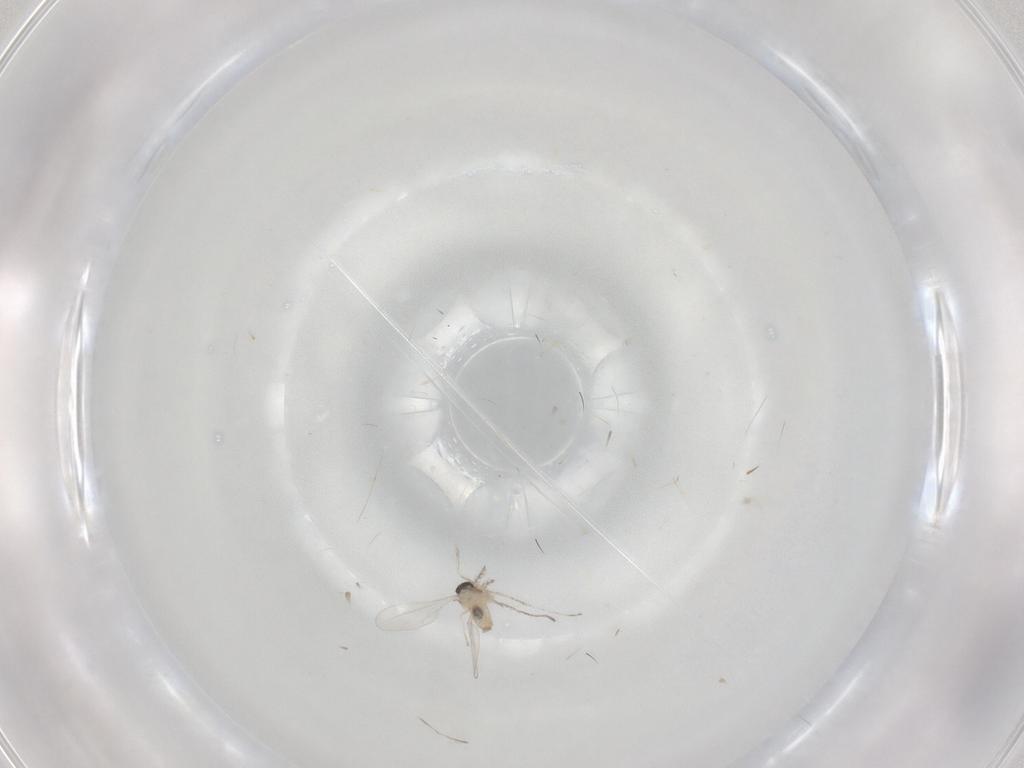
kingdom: Animalia
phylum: Arthropoda
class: Insecta
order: Diptera
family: Cecidomyiidae
